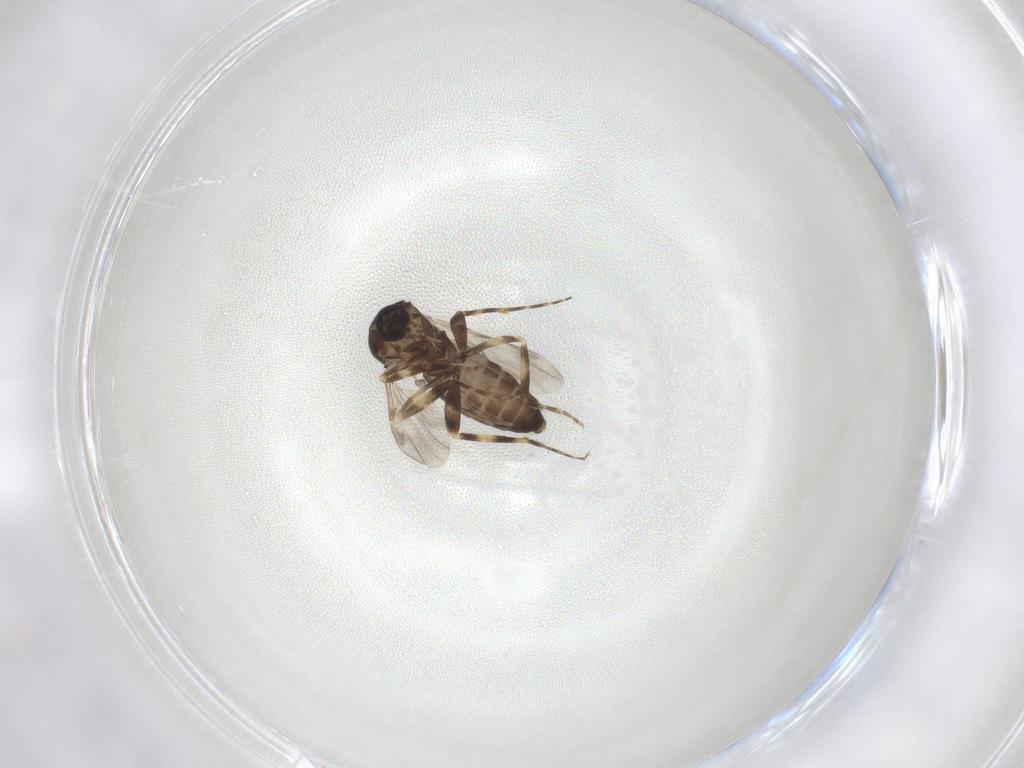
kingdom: Animalia
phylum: Arthropoda
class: Insecta
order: Diptera
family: Ceratopogonidae
